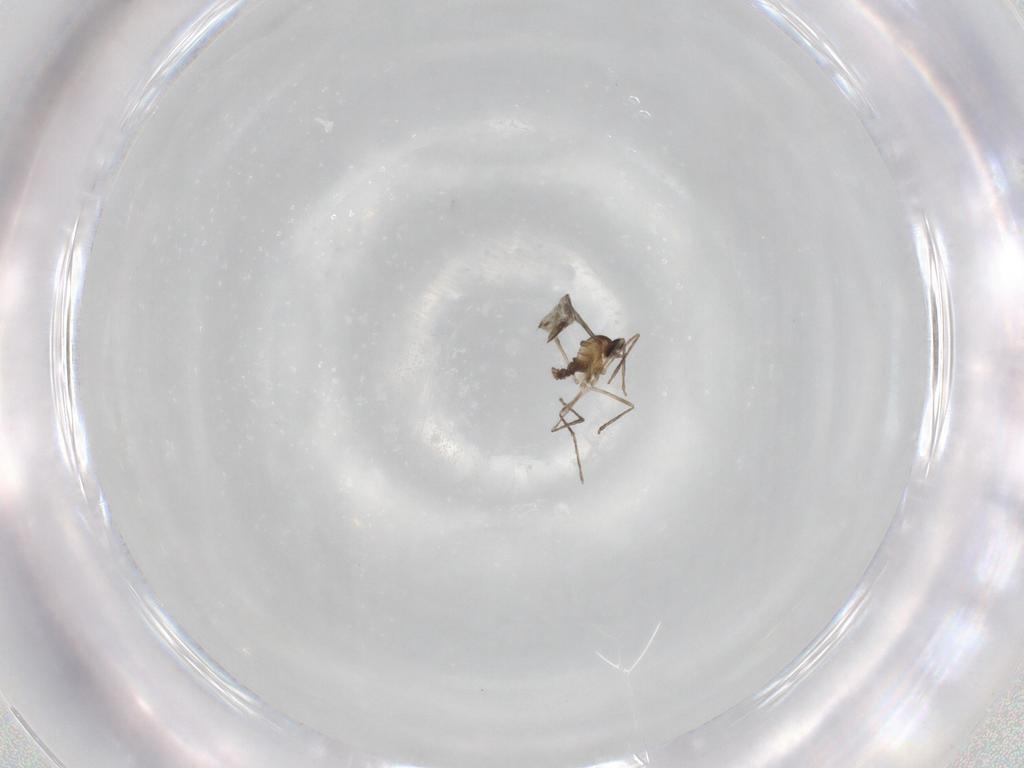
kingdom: Animalia
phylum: Arthropoda
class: Insecta
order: Diptera
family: Cecidomyiidae
